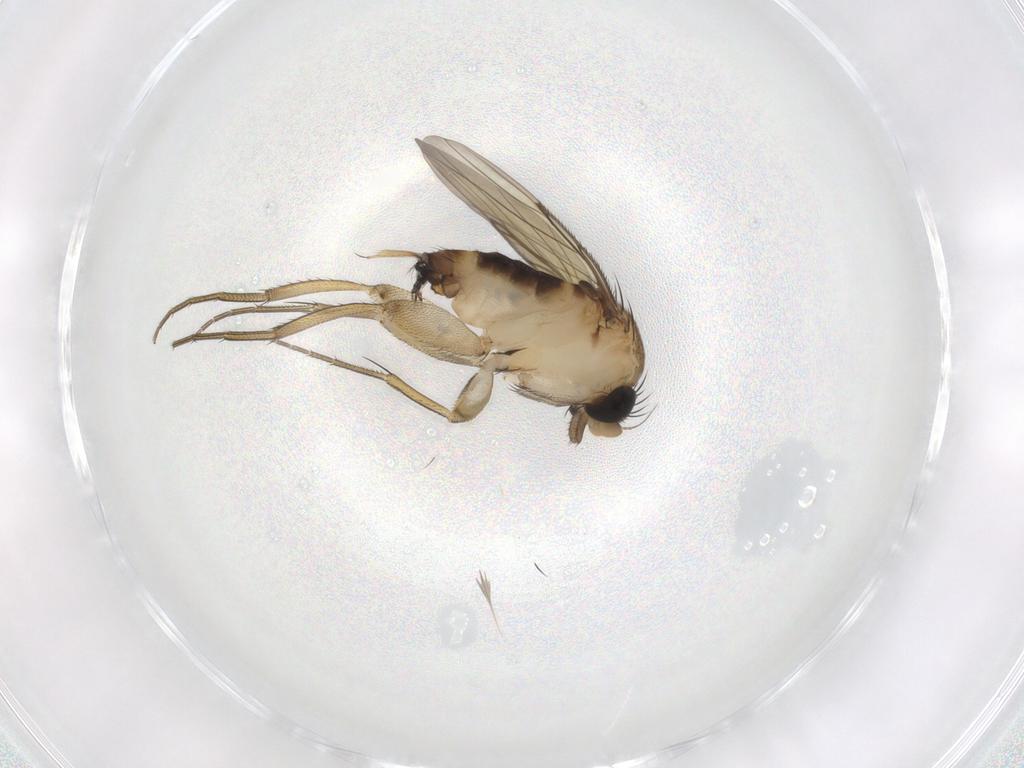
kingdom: Animalia
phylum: Arthropoda
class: Insecta
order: Diptera
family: Phoridae
